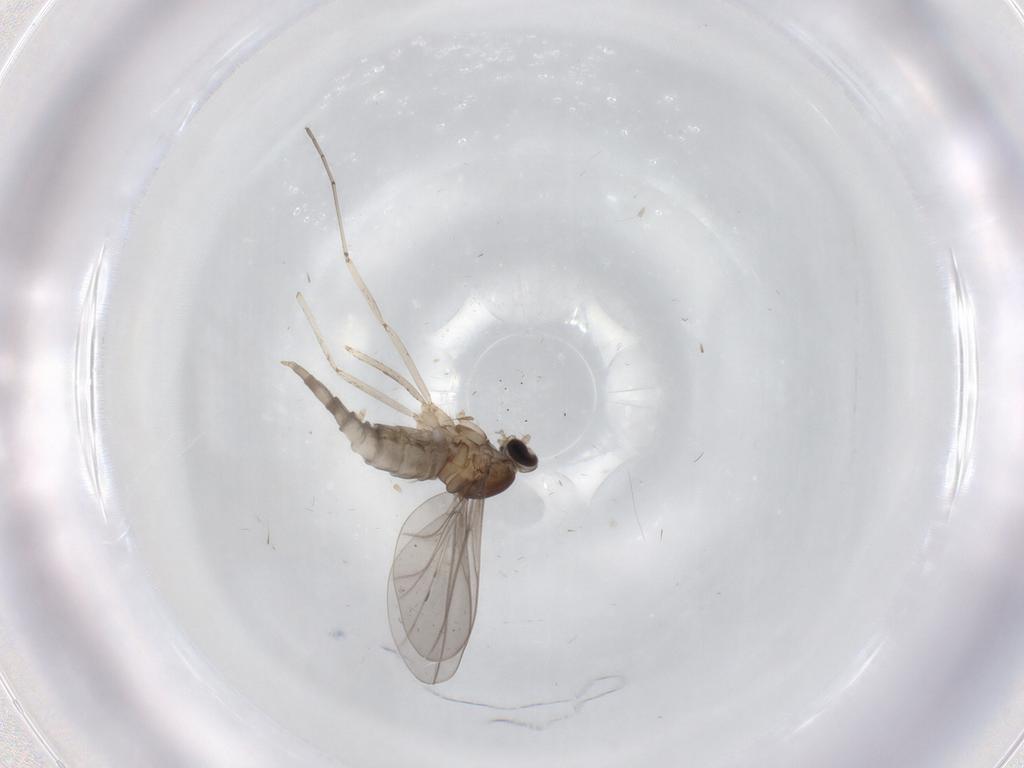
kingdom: Animalia
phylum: Arthropoda
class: Insecta
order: Diptera
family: Cecidomyiidae
